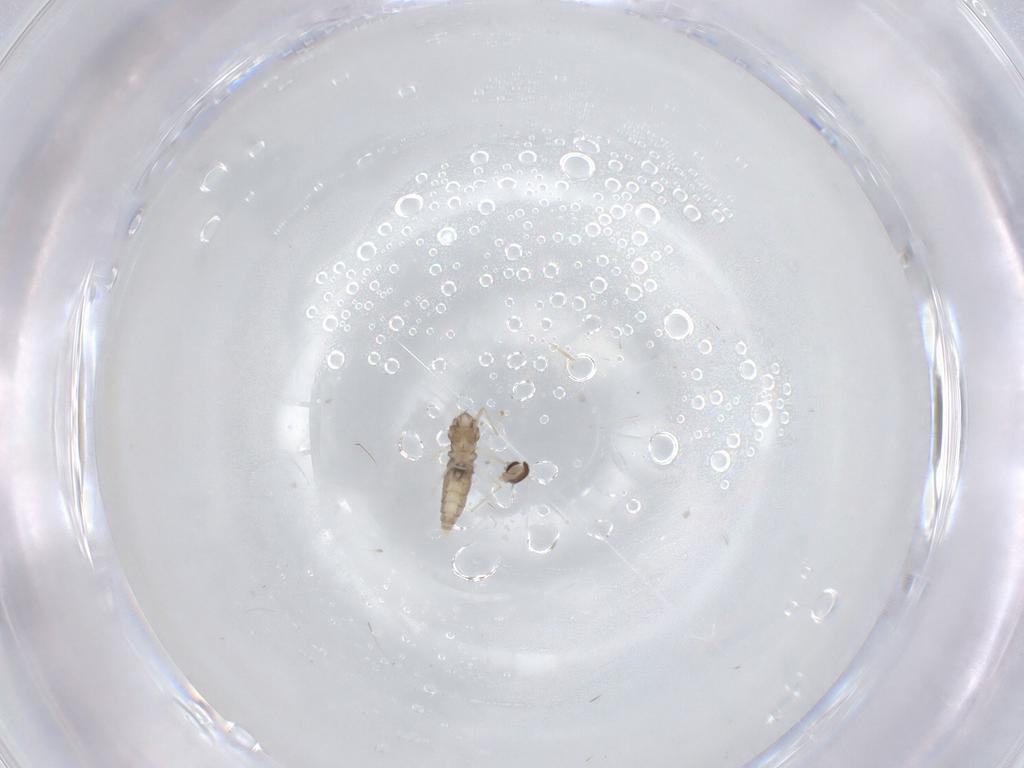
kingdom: Animalia
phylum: Arthropoda
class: Insecta
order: Diptera
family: Cecidomyiidae
